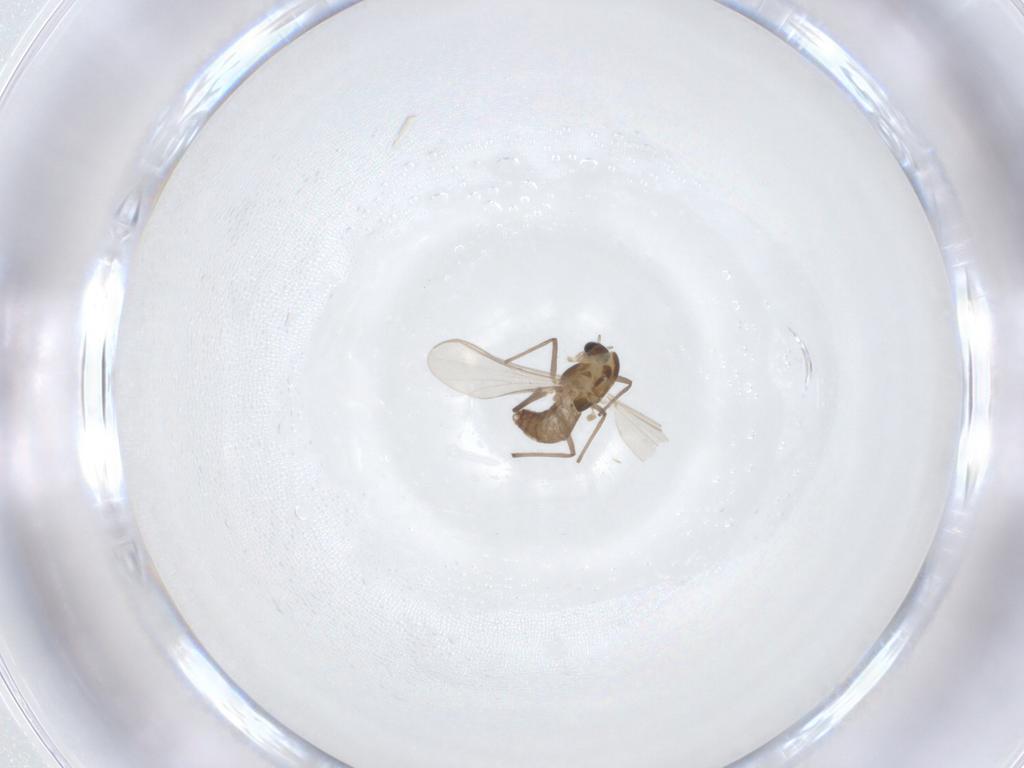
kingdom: Animalia
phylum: Arthropoda
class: Insecta
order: Diptera
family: Chironomidae
